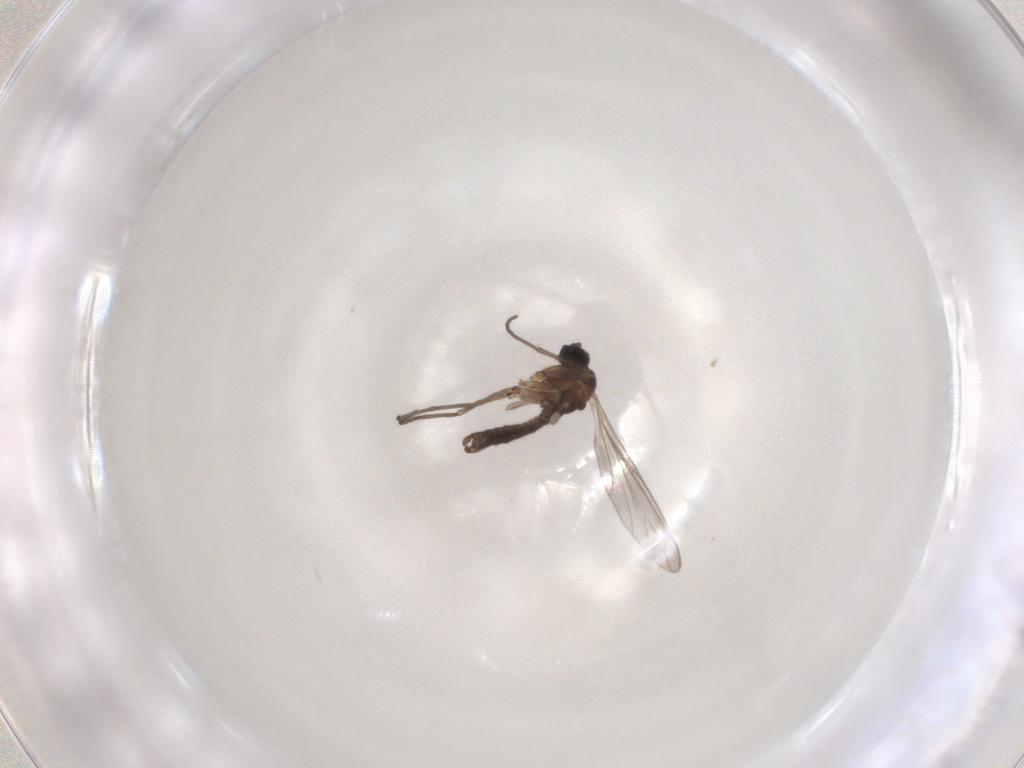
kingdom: Animalia
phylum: Arthropoda
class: Insecta
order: Diptera
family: Sciaridae
